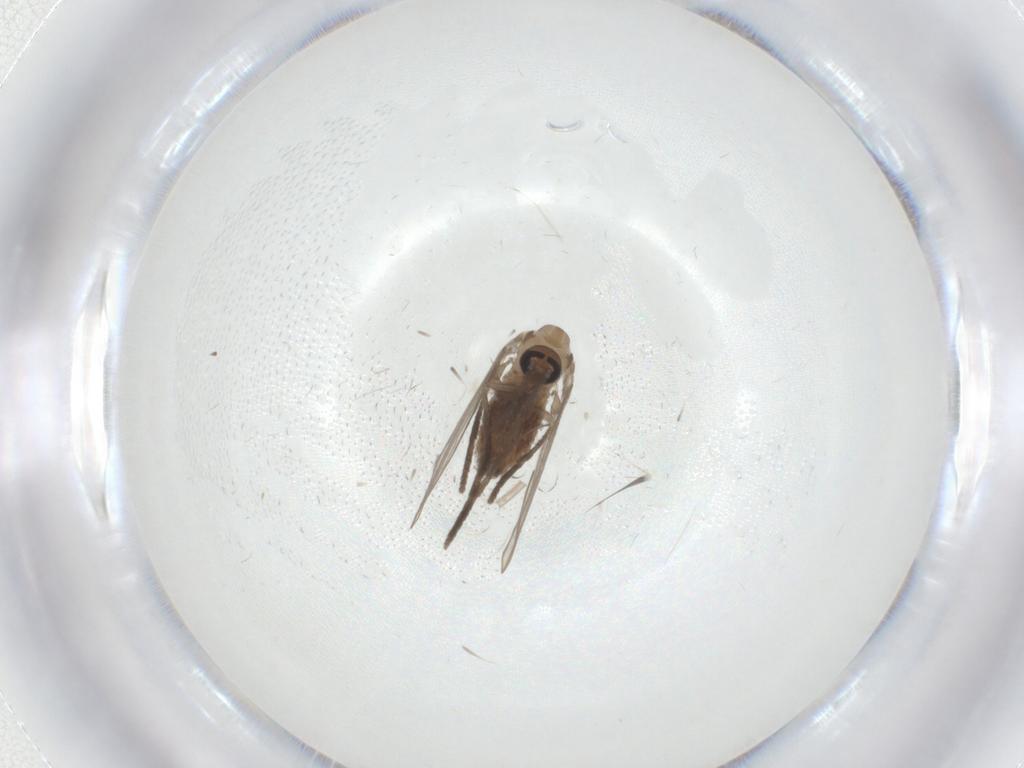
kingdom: Animalia
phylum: Arthropoda
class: Insecta
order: Diptera
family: Psychodidae
